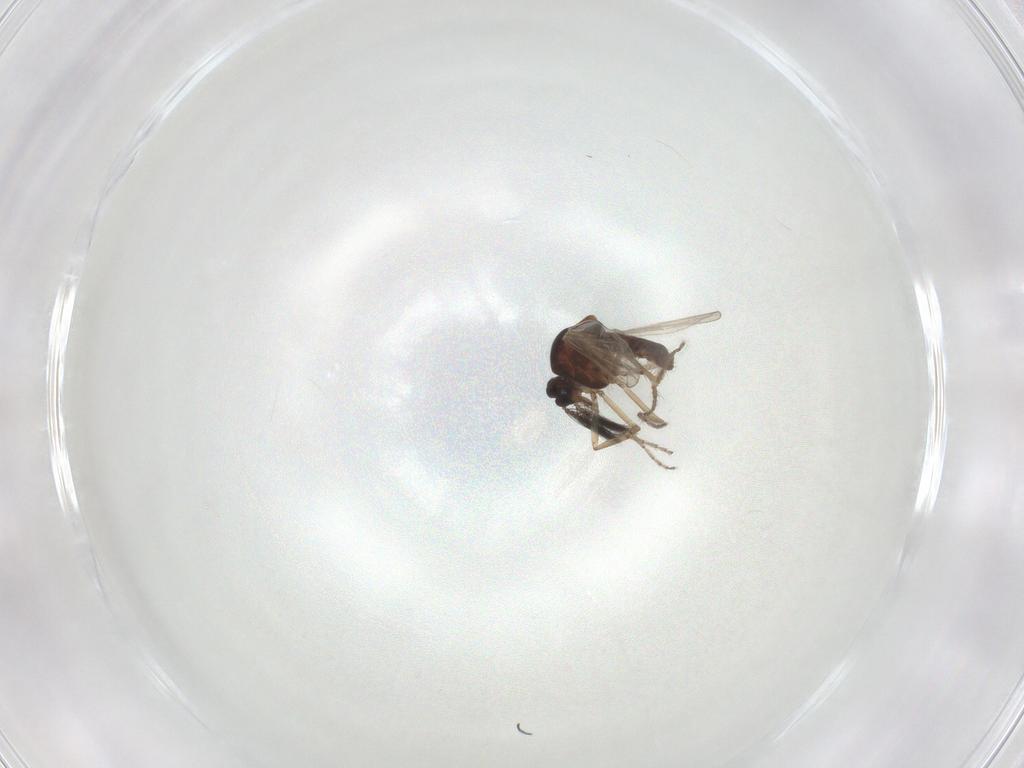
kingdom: Animalia
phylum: Arthropoda
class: Insecta
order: Diptera
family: Ceratopogonidae
